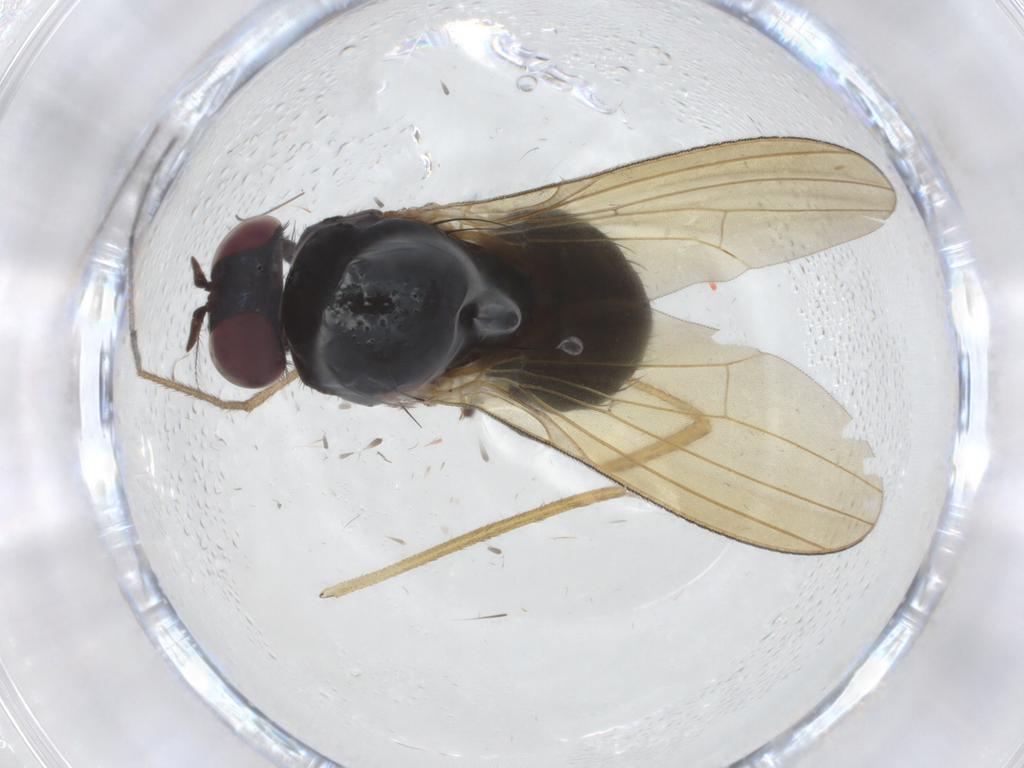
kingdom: Animalia
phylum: Arthropoda
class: Insecta
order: Diptera
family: Limoniidae
